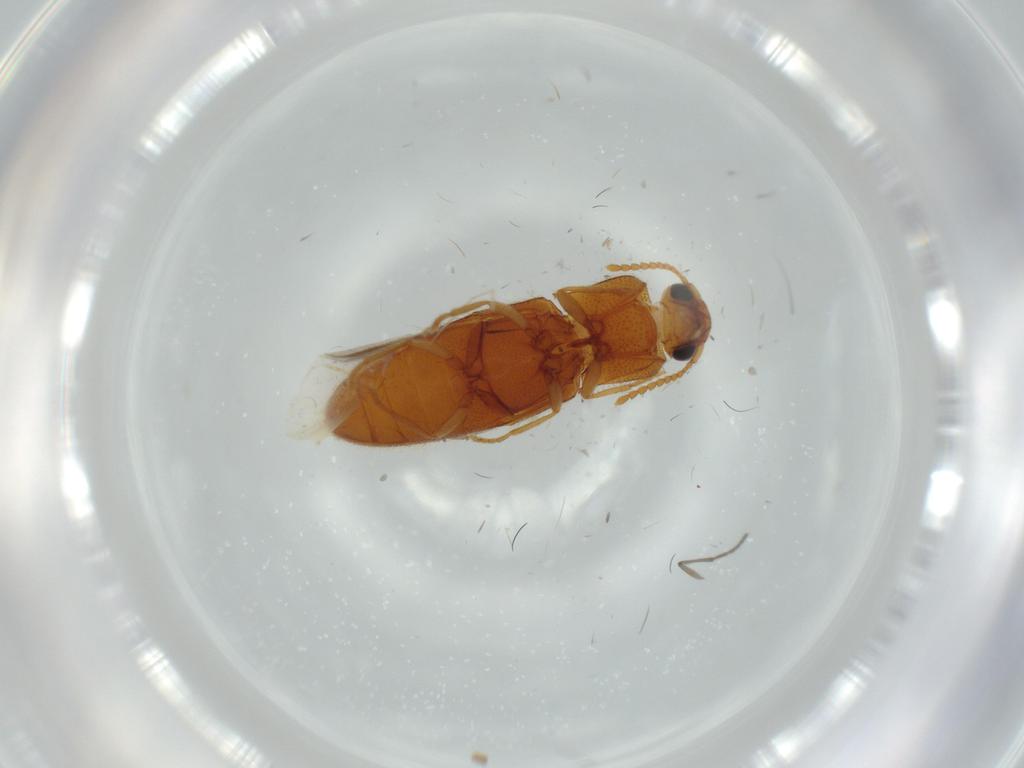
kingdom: Animalia
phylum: Arthropoda
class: Insecta
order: Coleoptera
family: Elateridae
